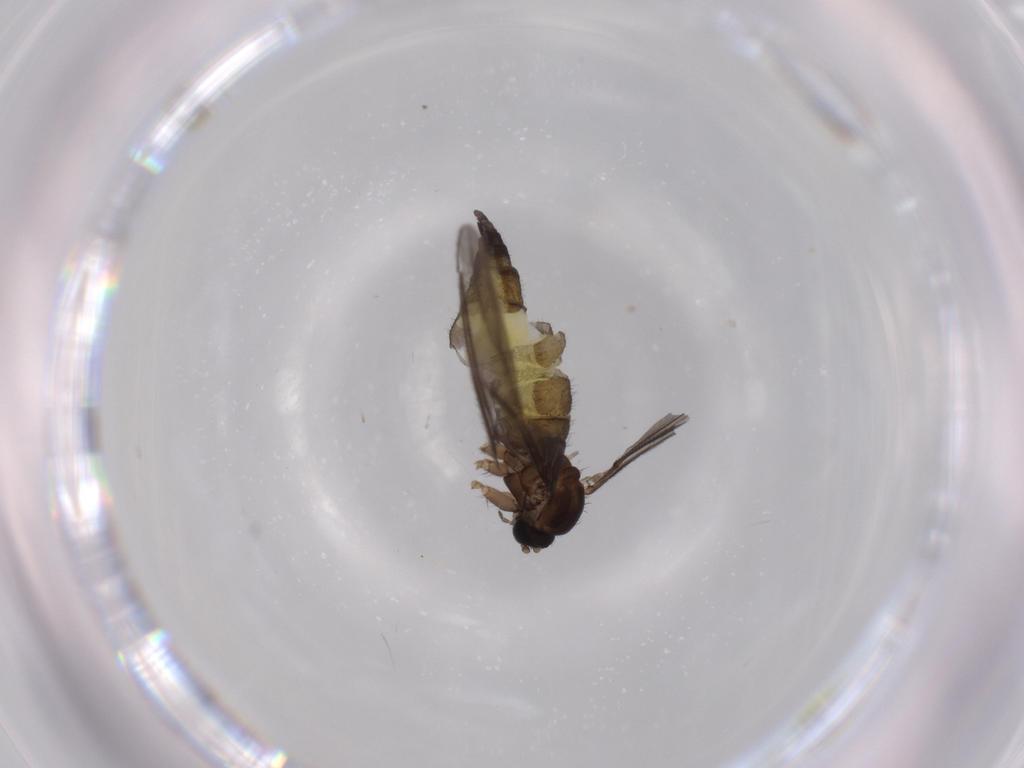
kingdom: Animalia
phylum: Arthropoda
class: Insecta
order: Diptera
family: Sciaridae
